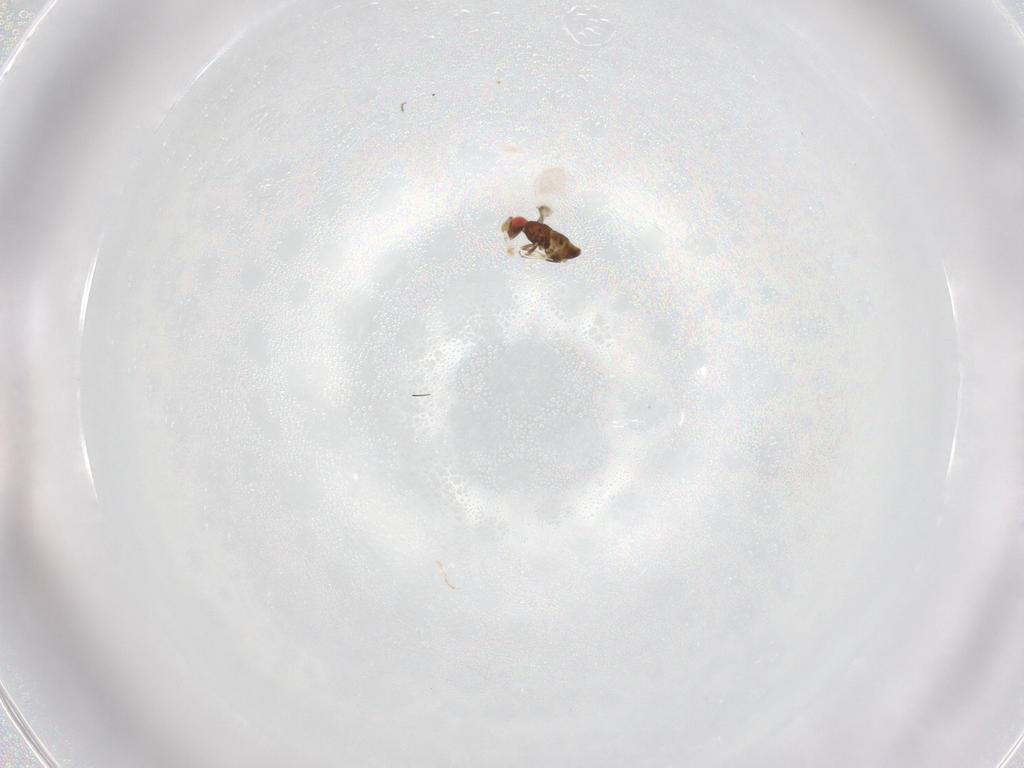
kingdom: Animalia
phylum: Arthropoda
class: Insecta
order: Hymenoptera
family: Scelionidae
